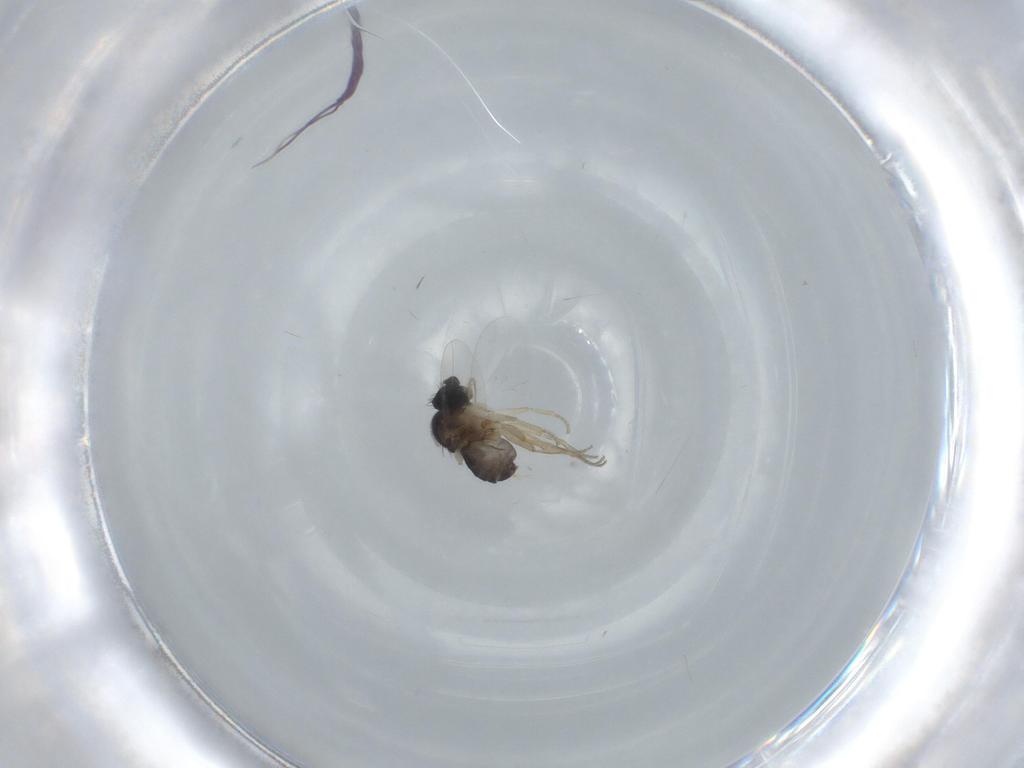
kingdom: Animalia
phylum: Arthropoda
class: Insecta
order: Diptera
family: Phoridae
